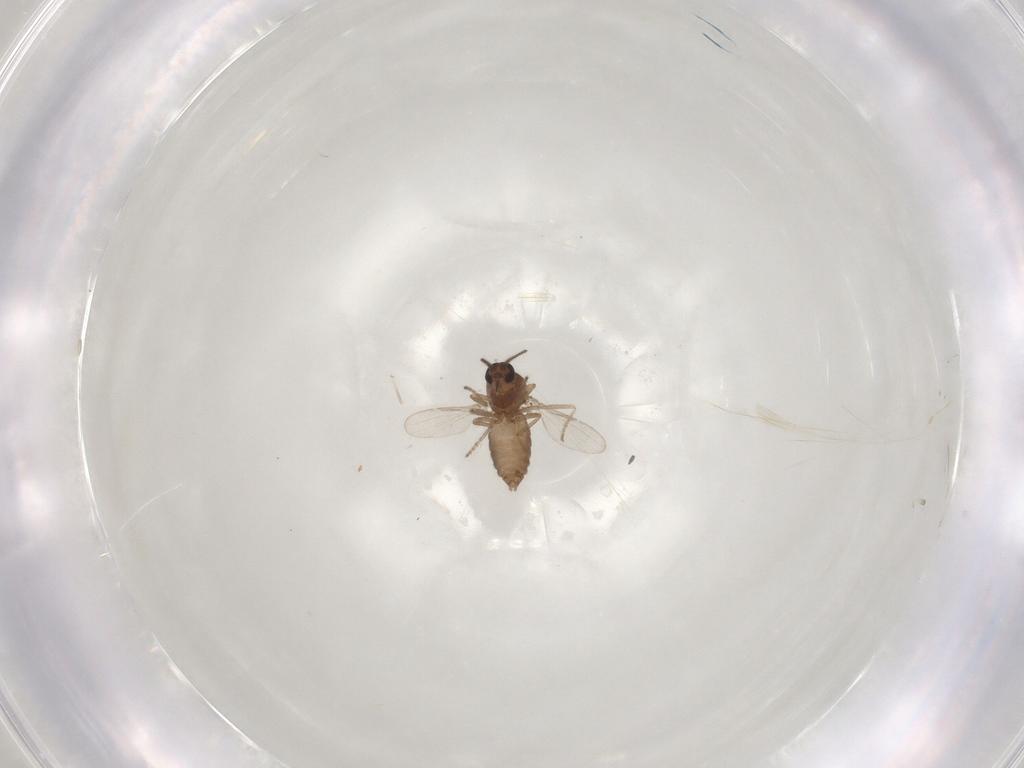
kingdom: Animalia
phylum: Arthropoda
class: Insecta
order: Diptera
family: Ceratopogonidae
